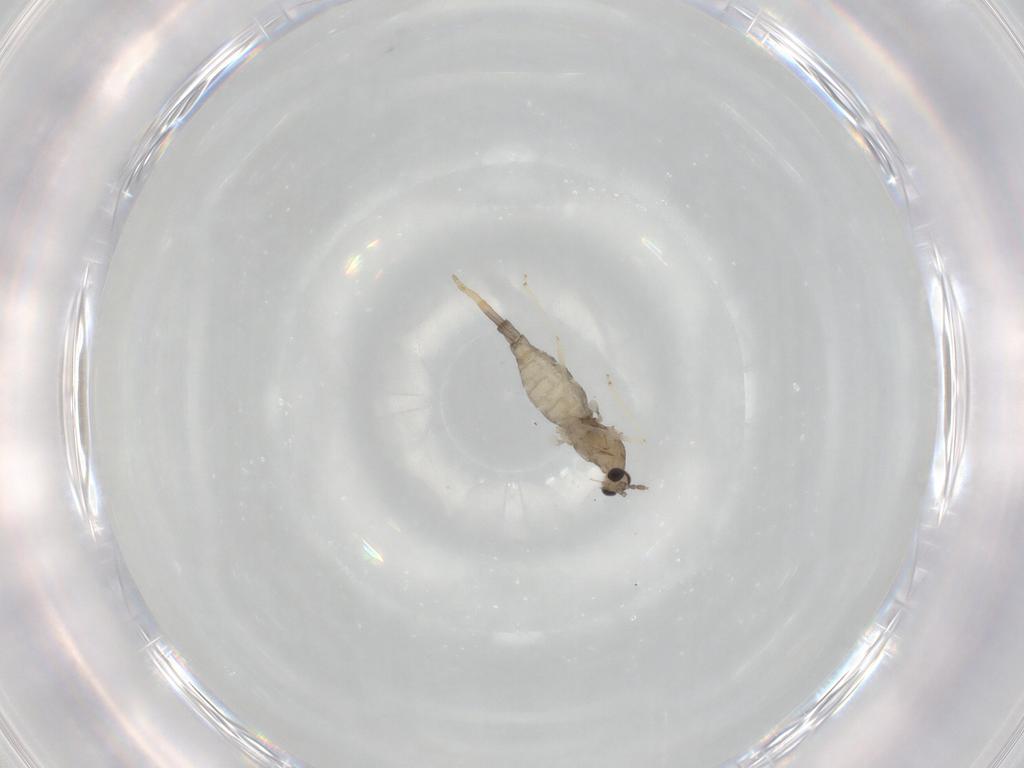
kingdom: Animalia
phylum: Arthropoda
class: Insecta
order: Diptera
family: Cecidomyiidae
